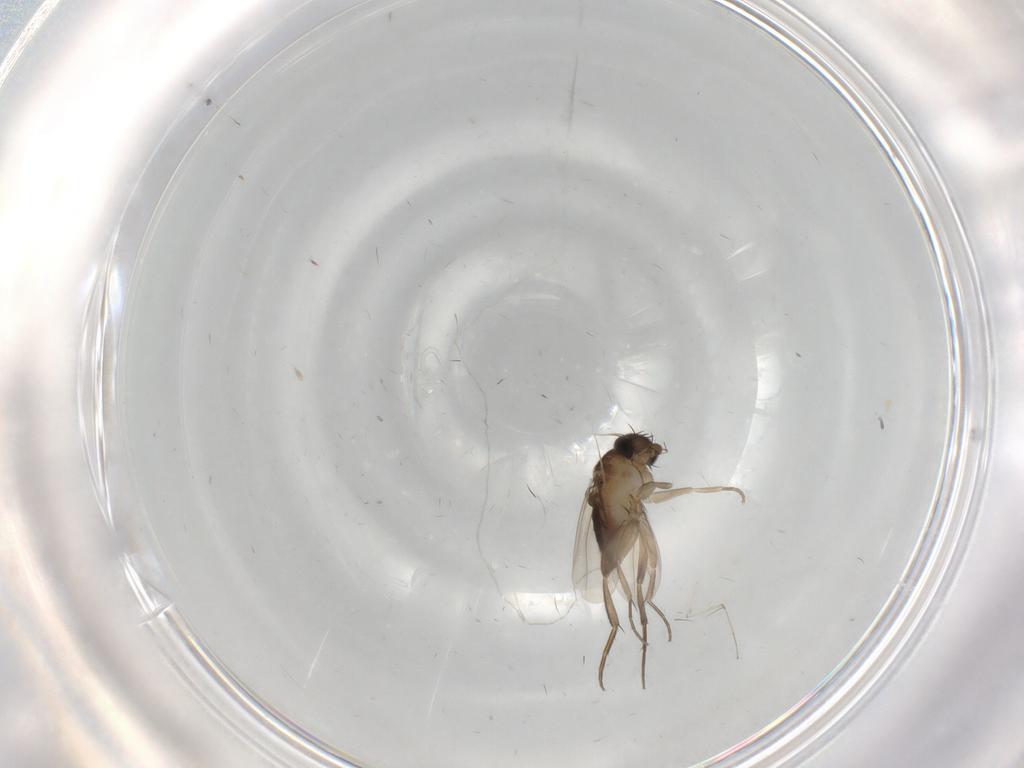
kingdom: Animalia
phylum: Arthropoda
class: Insecta
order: Diptera
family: Phoridae
